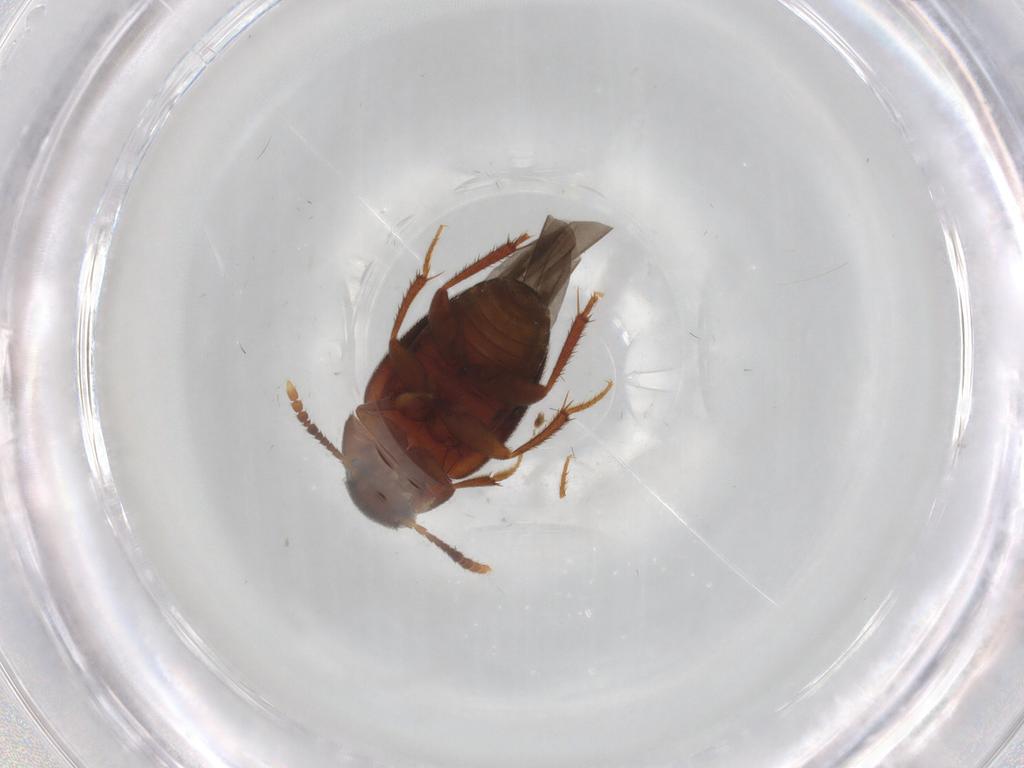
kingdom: Animalia
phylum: Arthropoda
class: Insecta
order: Coleoptera
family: Leiodidae
